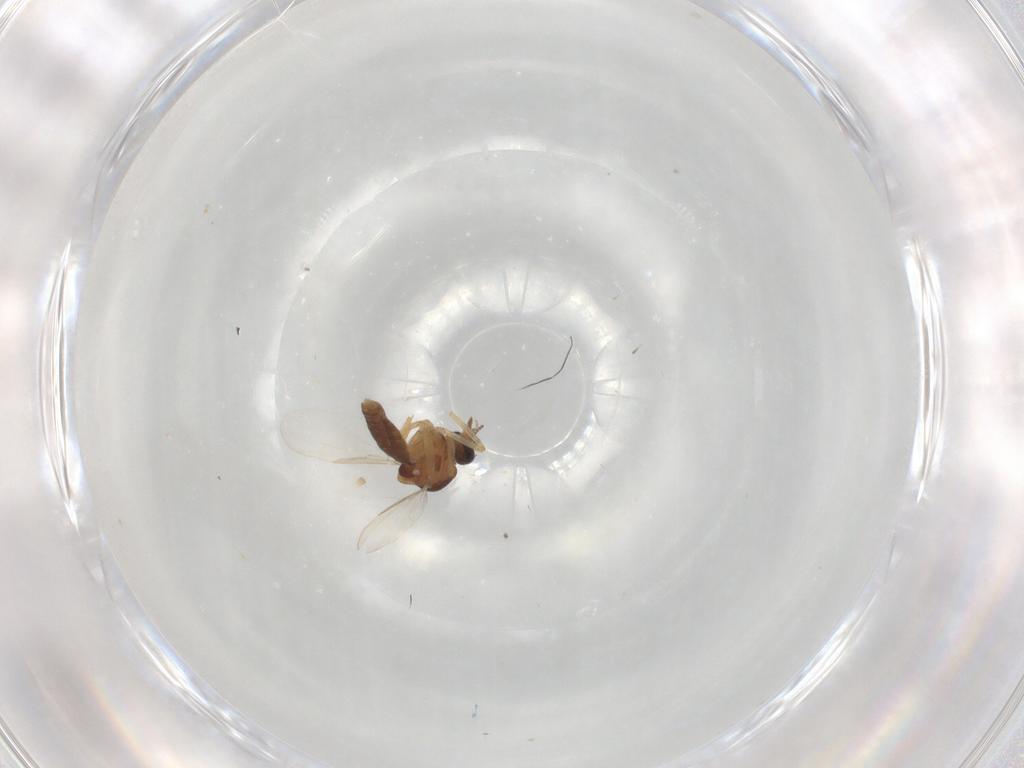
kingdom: Animalia
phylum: Arthropoda
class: Insecta
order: Diptera
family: Ceratopogonidae
